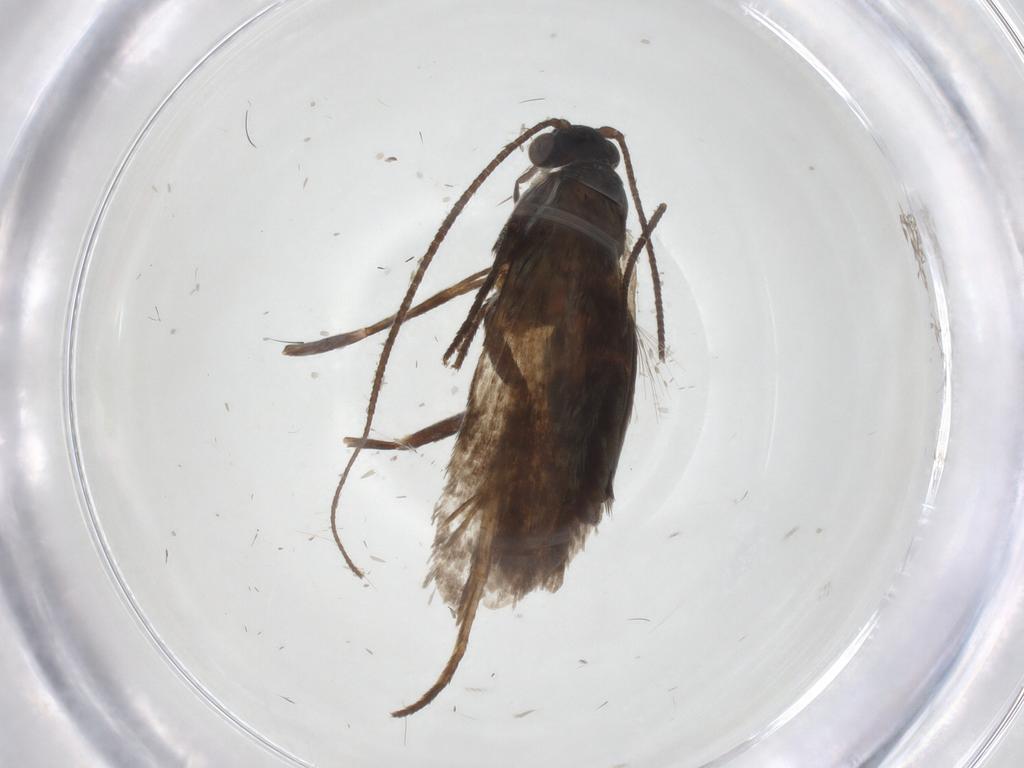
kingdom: Animalia
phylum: Arthropoda
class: Insecta
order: Lepidoptera
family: Adelidae
